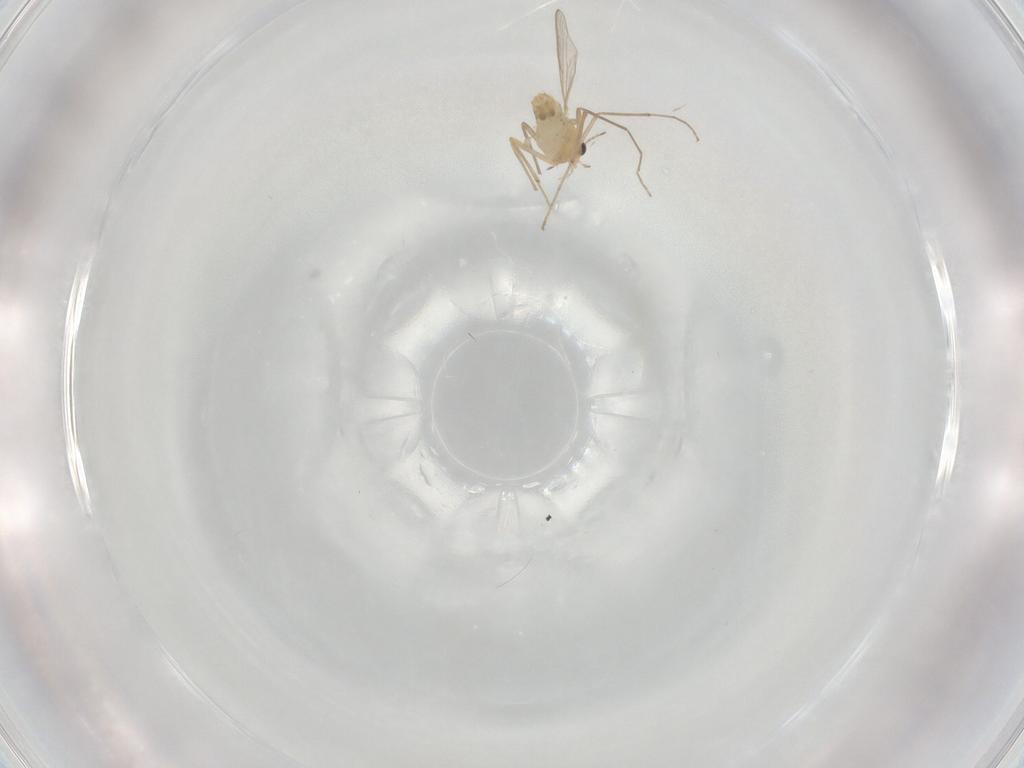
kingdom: Animalia
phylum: Arthropoda
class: Insecta
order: Diptera
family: Chironomidae
